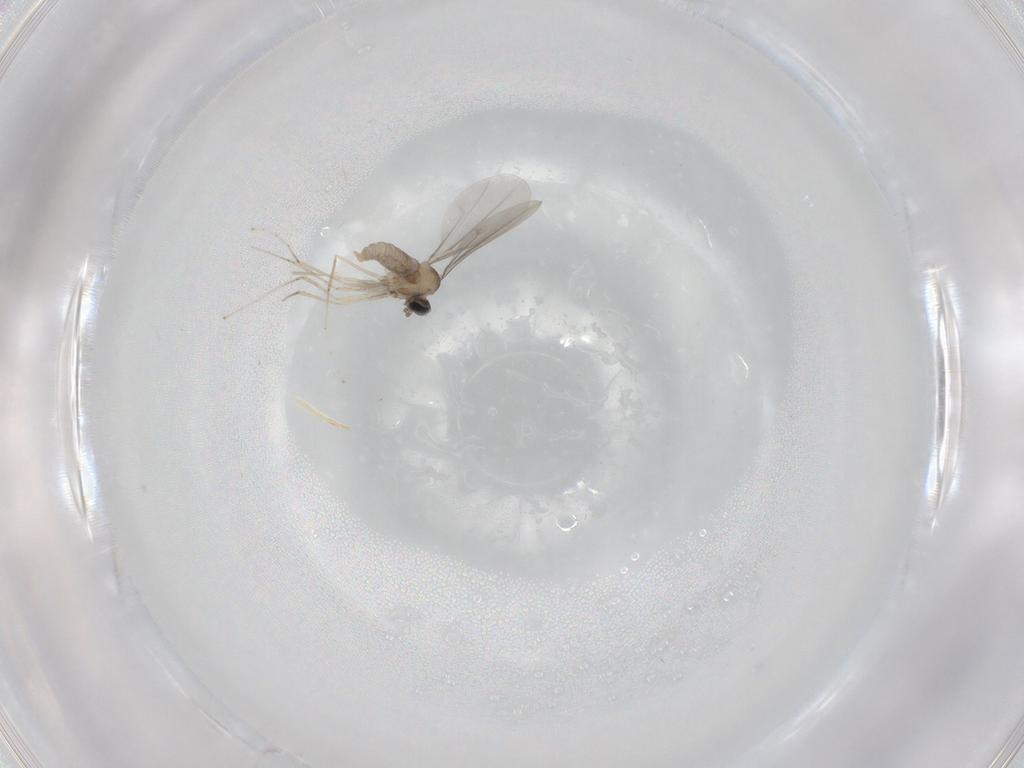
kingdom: Animalia
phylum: Arthropoda
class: Insecta
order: Diptera
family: Cecidomyiidae
